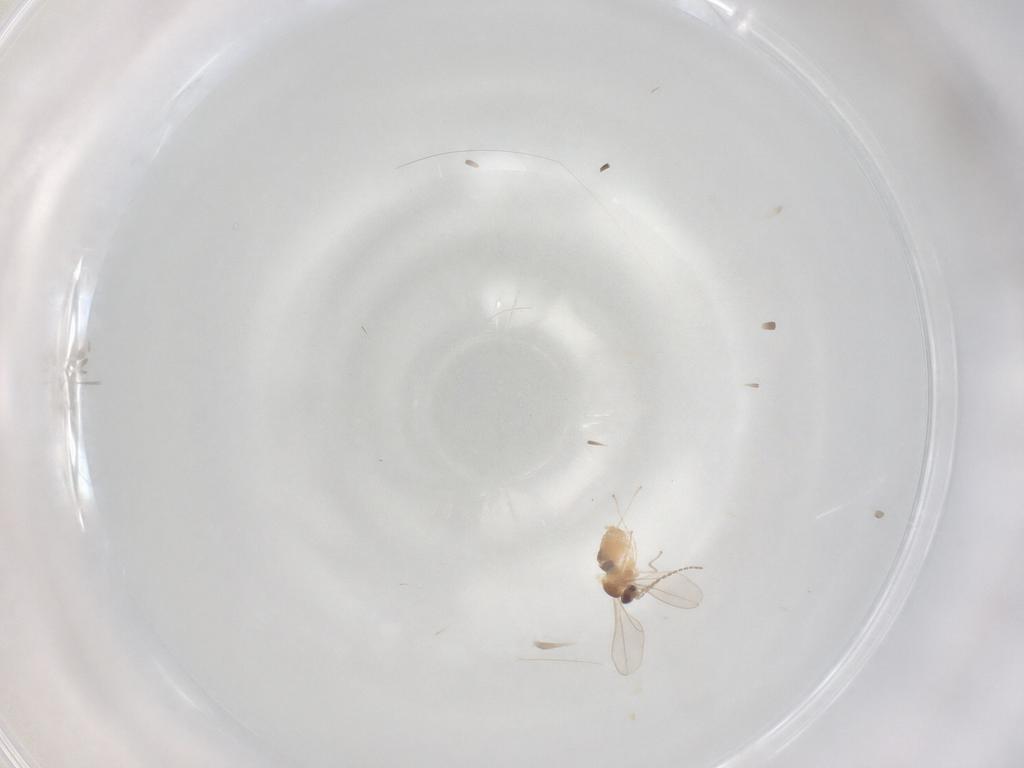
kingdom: Animalia
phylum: Arthropoda
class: Insecta
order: Diptera
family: Cecidomyiidae
